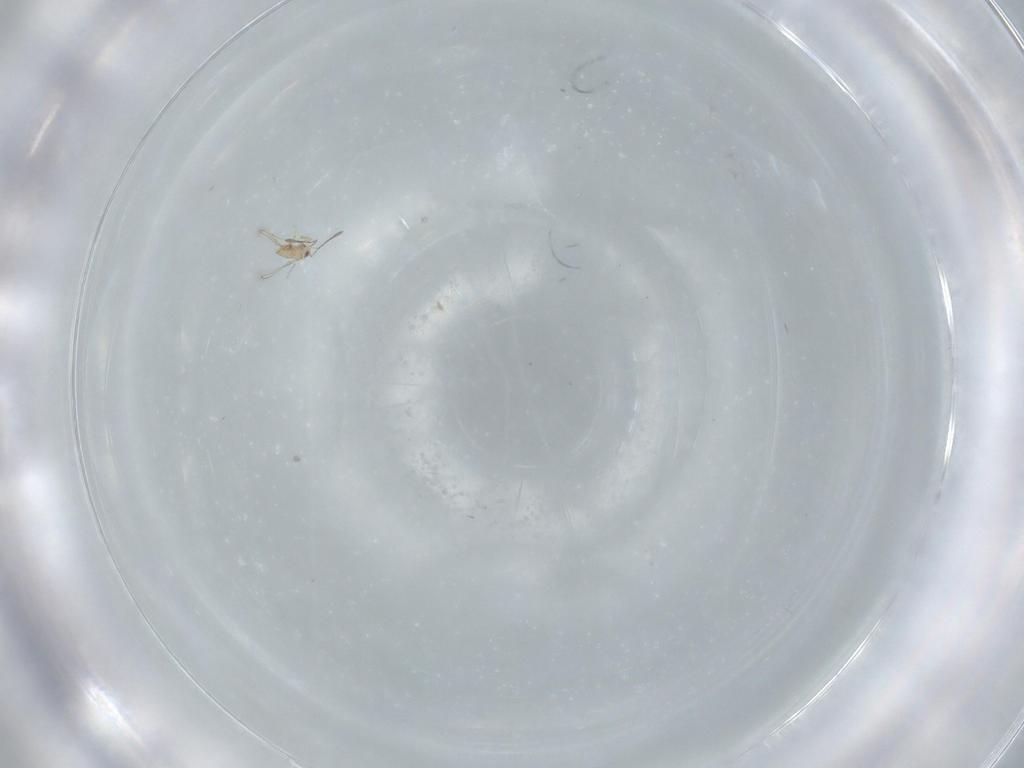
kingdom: Animalia
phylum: Arthropoda
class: Insecta
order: Hymenoptera
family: Mymaridae
